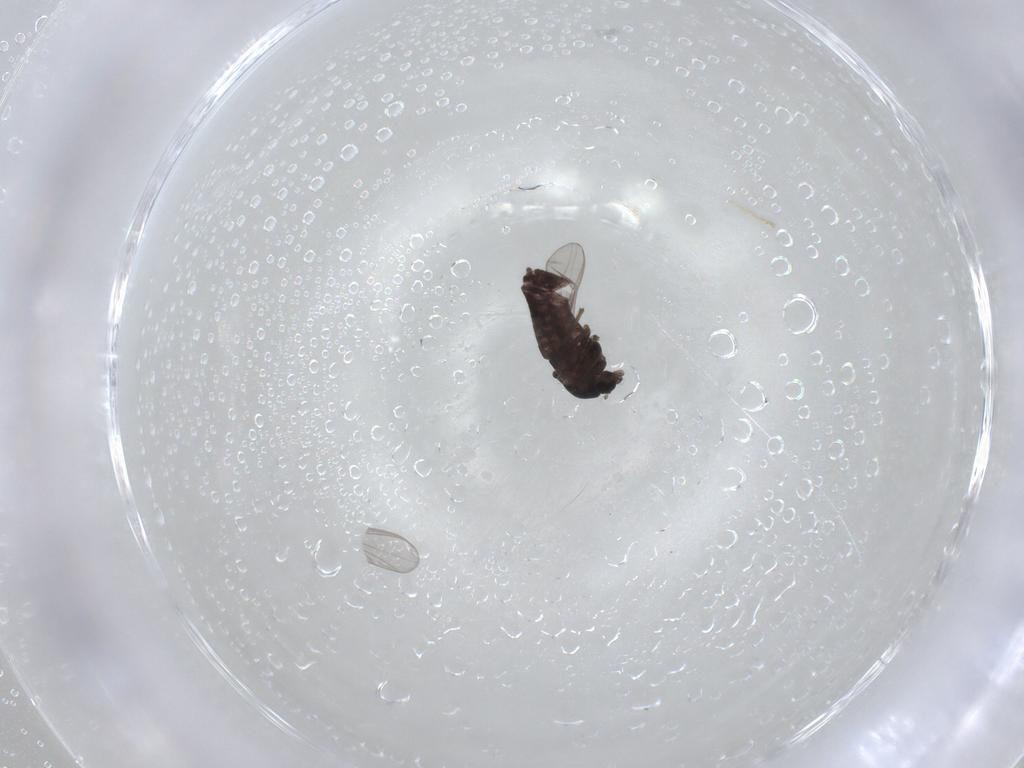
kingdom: Animalia
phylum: Arthropoda
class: Insecta
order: Diptera
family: Chironomidae
